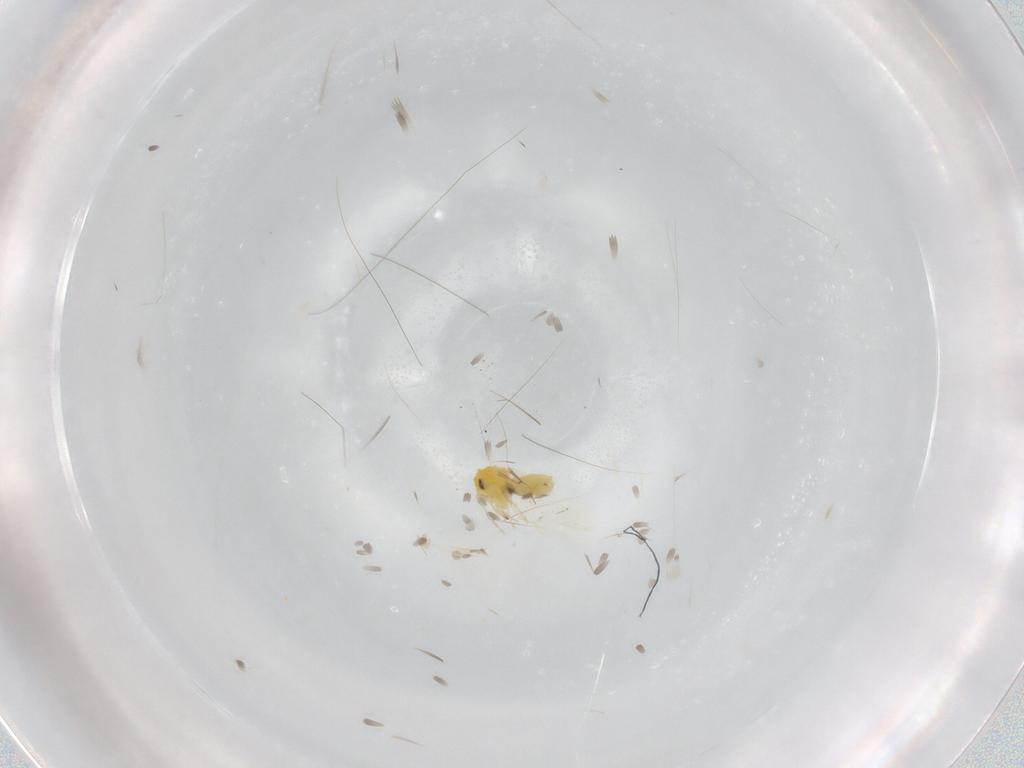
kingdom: Animalia
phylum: Arthropoda
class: Insecta
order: Hemiptera
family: Aleyrodidae
